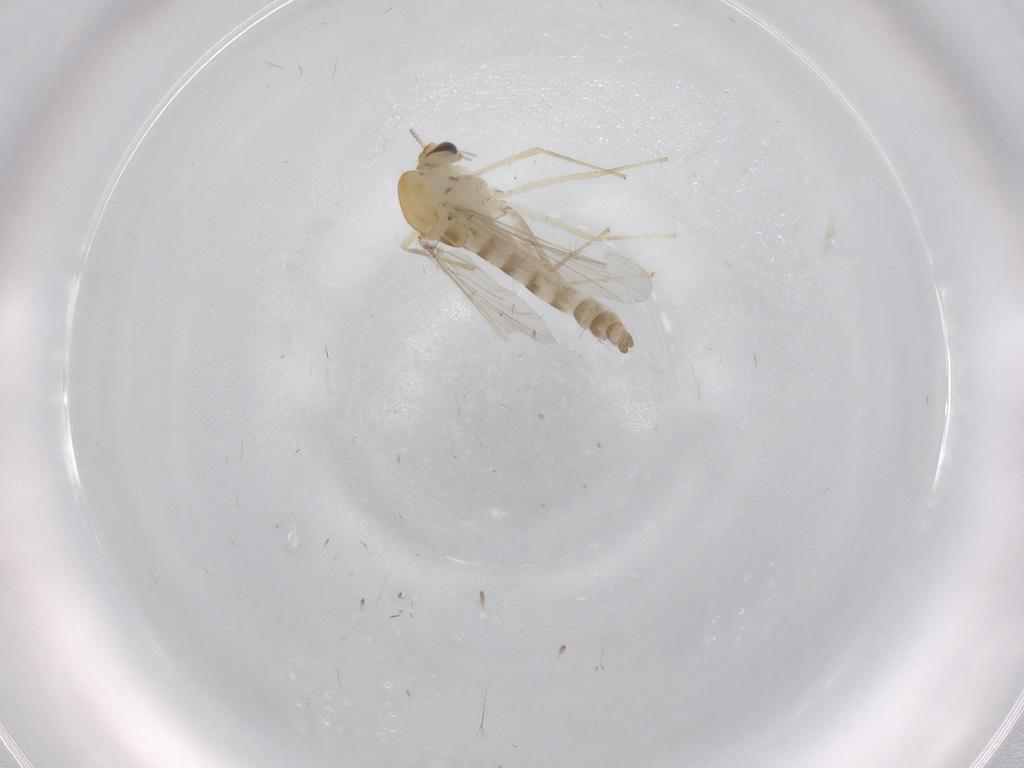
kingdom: Animalia
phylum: Arthropoda
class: Insecta
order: Diptera
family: Chironomidae
